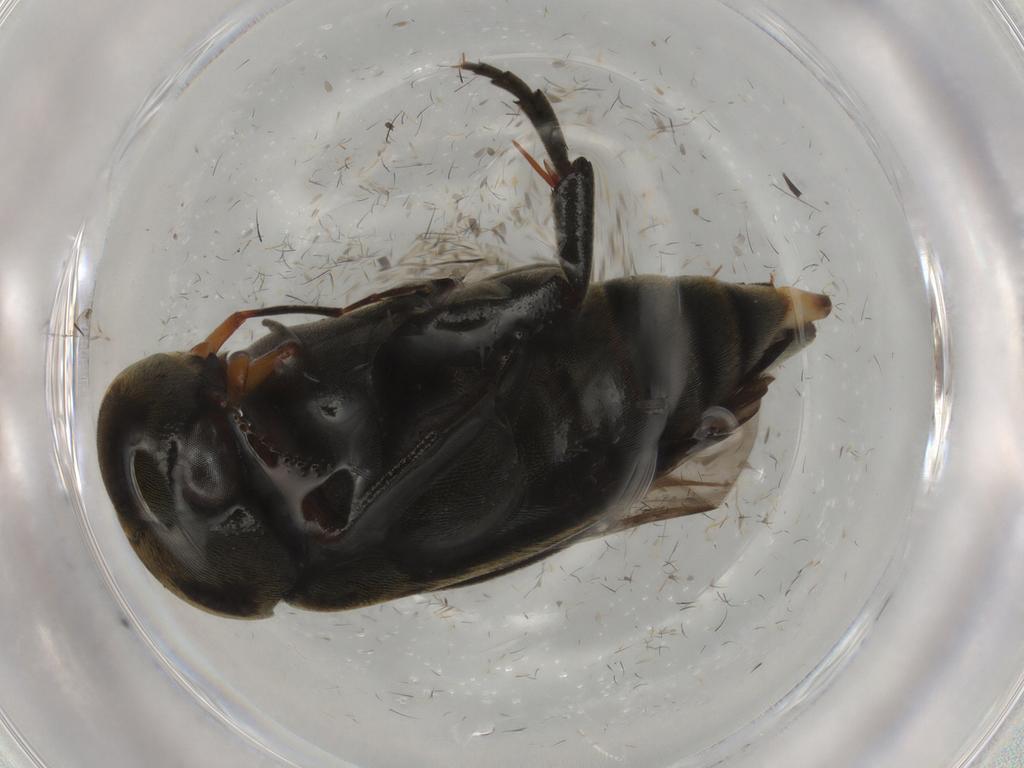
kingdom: Animalia
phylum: Arthropoda
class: Insecta
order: Coleoptera
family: Mordellidae
